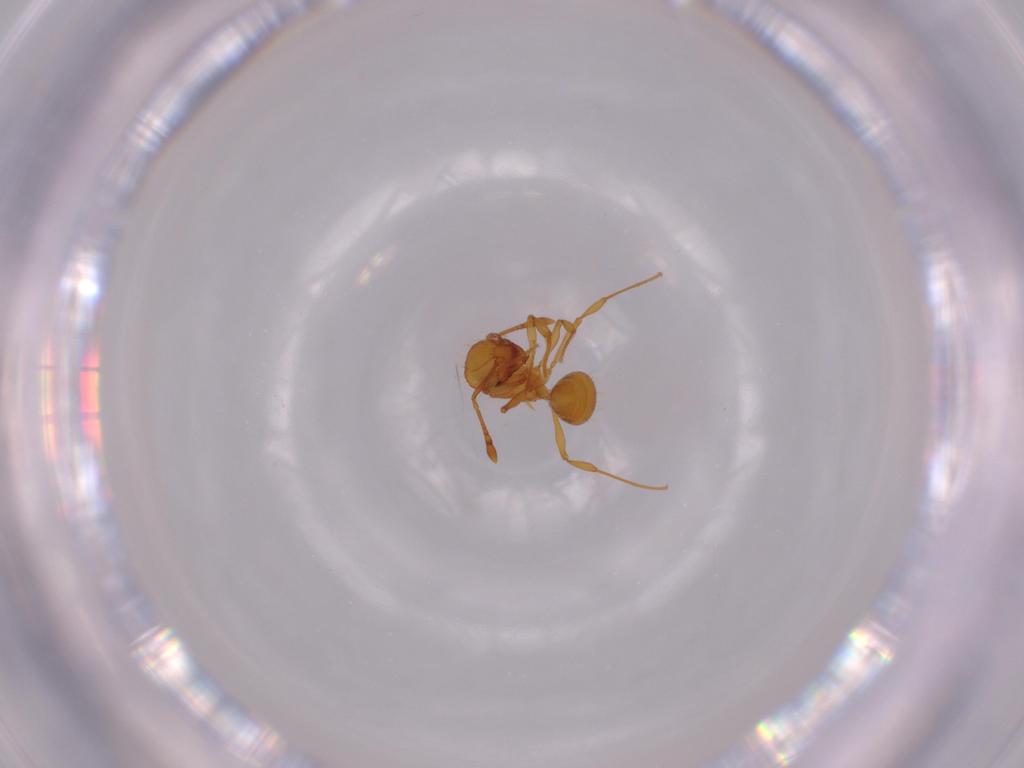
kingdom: Animalia
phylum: Arthropoda
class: Insecta
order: Hymenoptera
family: Formicidae
